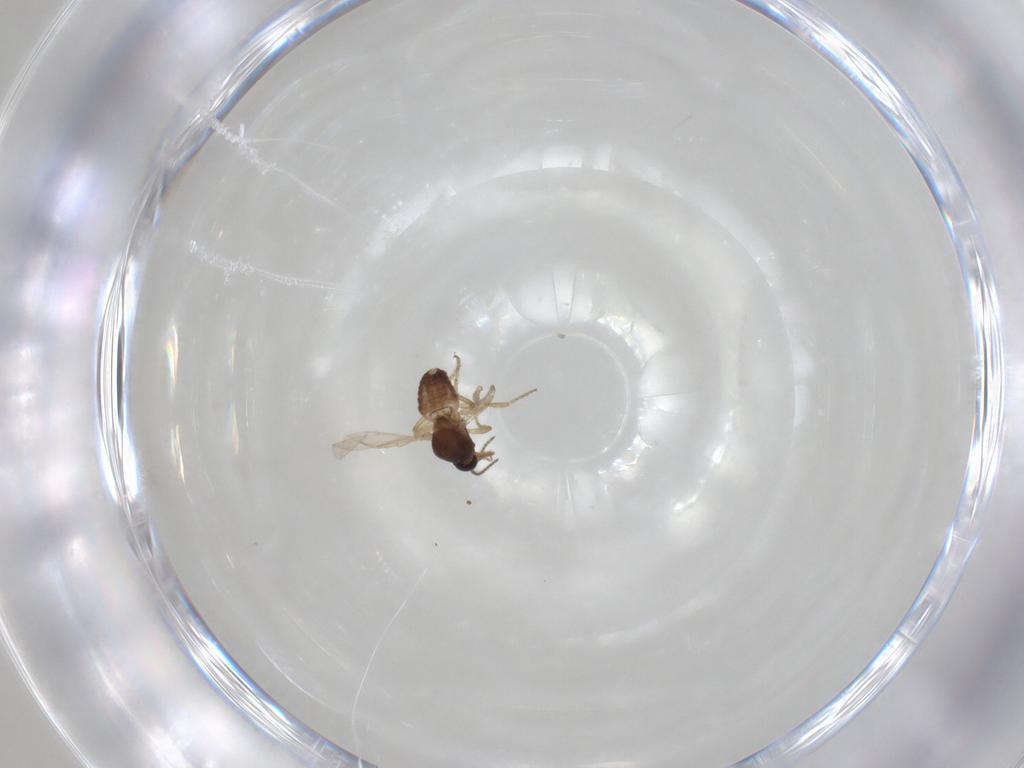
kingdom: Animalia
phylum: Arthropoda
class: Insecta
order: Diptera
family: Ceratopogonidae
